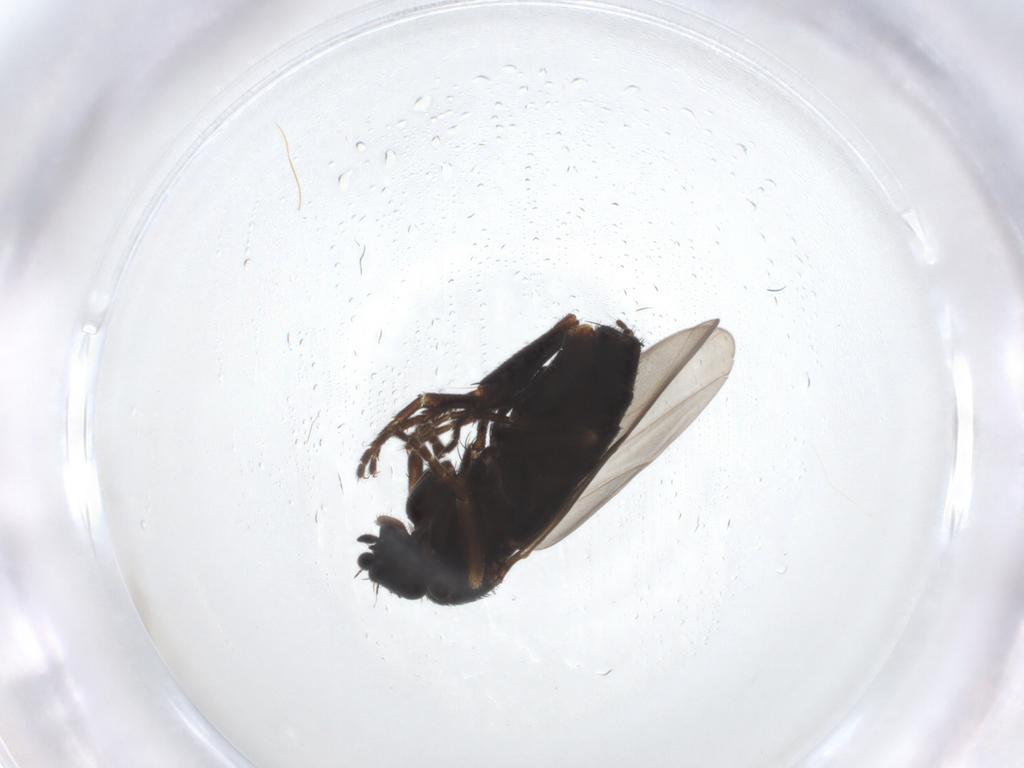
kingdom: Animalia
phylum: Arthropoda
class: Insecta
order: Diptera
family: Phoridae
